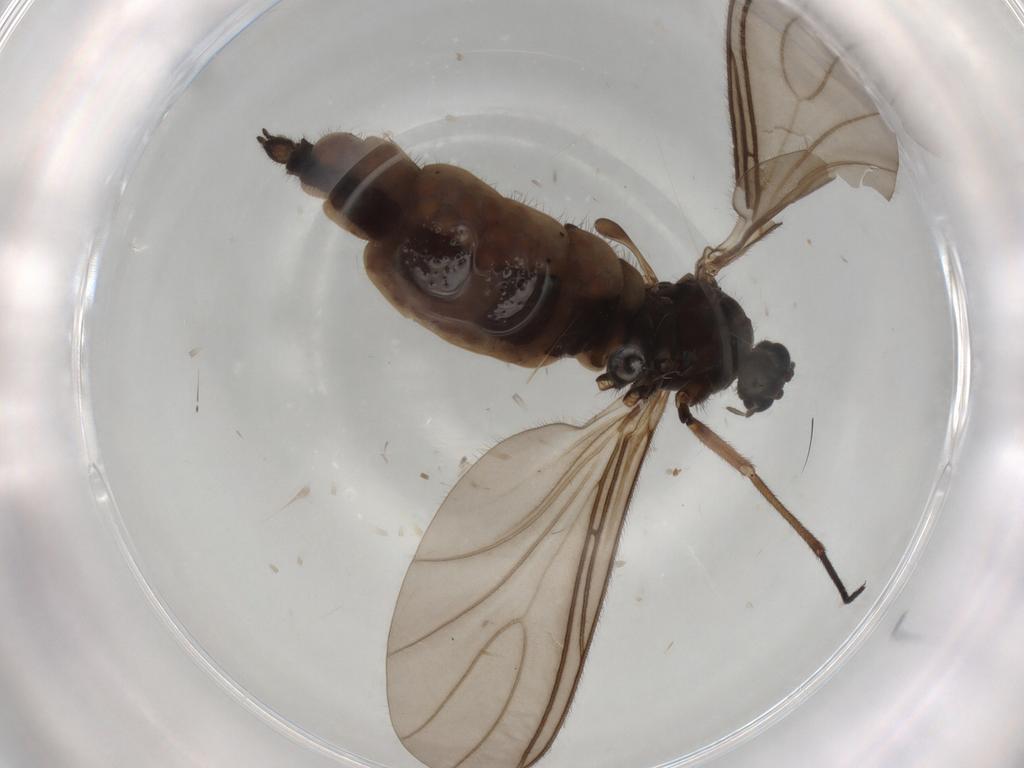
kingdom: Animalia
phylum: Arthropoda
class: Insecta
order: Diptera
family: Sciaridae
